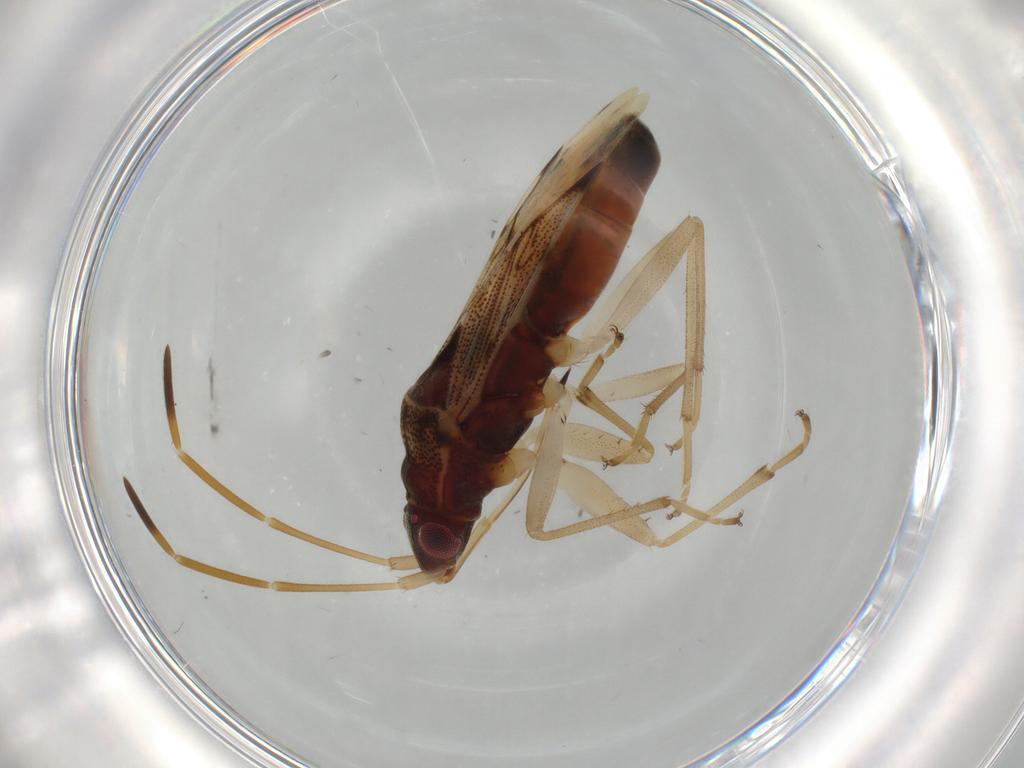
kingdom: Animalia
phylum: Arthropoda
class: Insecta
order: Hemiptera
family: Rhyparochromidae
